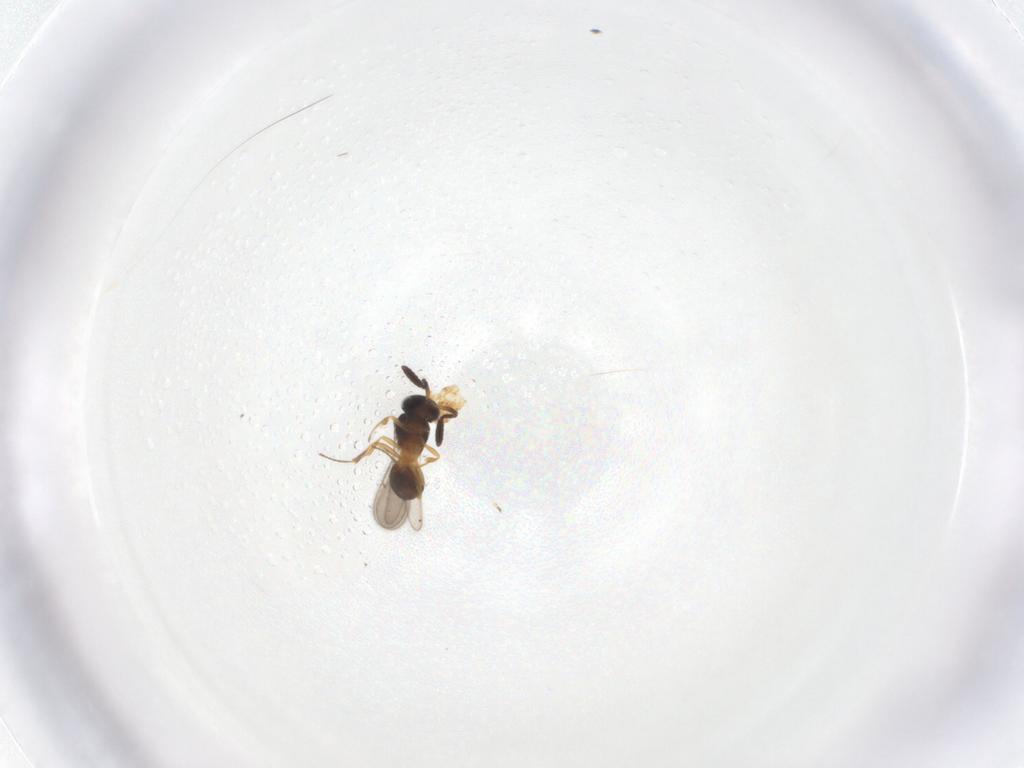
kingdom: Animalia
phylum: Arthropoda
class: Insecta
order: Hymenoptera
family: Scelionidae
